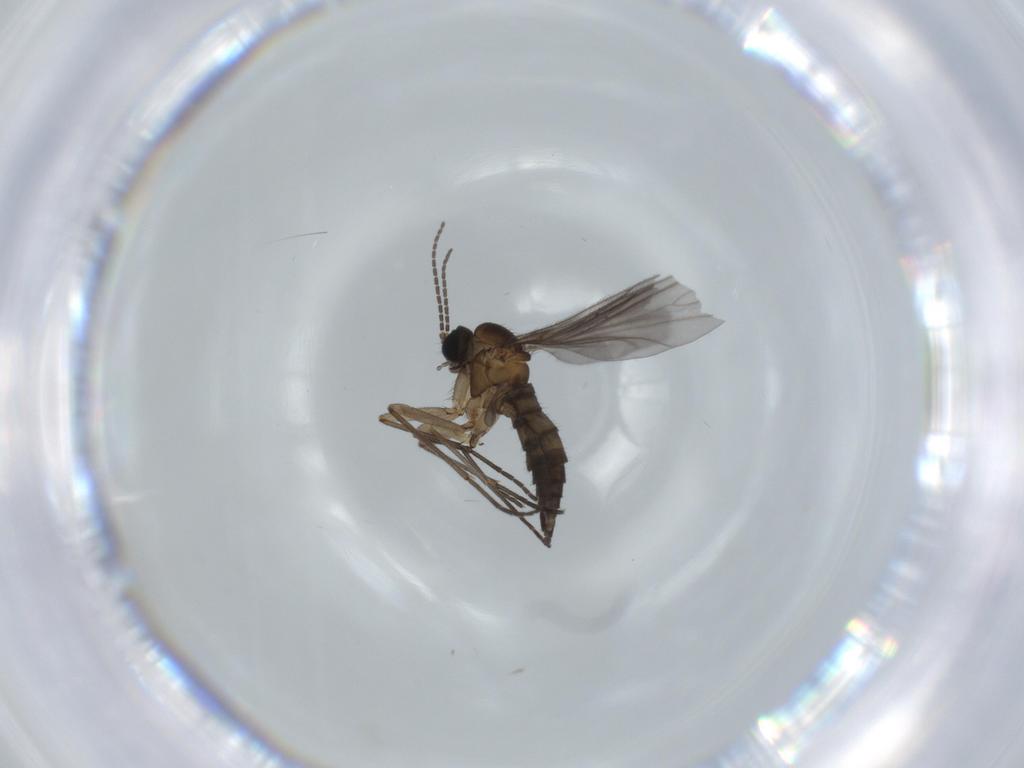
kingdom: Animalia
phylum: Arthropoda
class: Insecta
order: Diptera
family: Sciaridae
